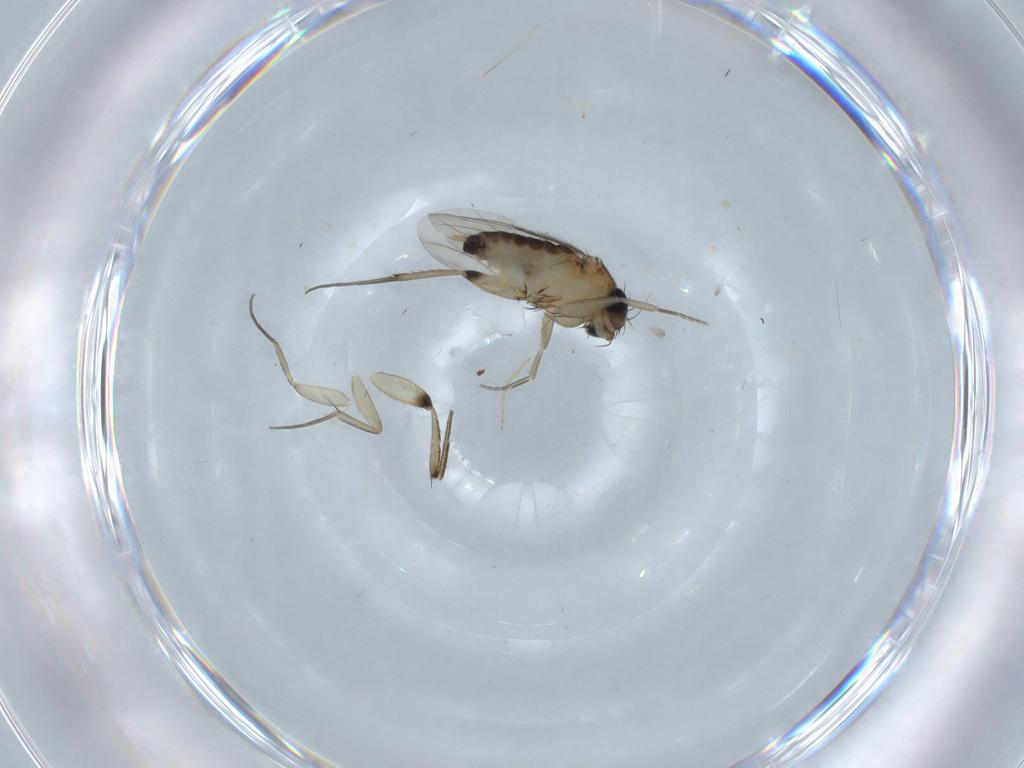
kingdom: Animalia
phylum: Arthropoda
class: Insecta
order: Diptera
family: Phoridae
